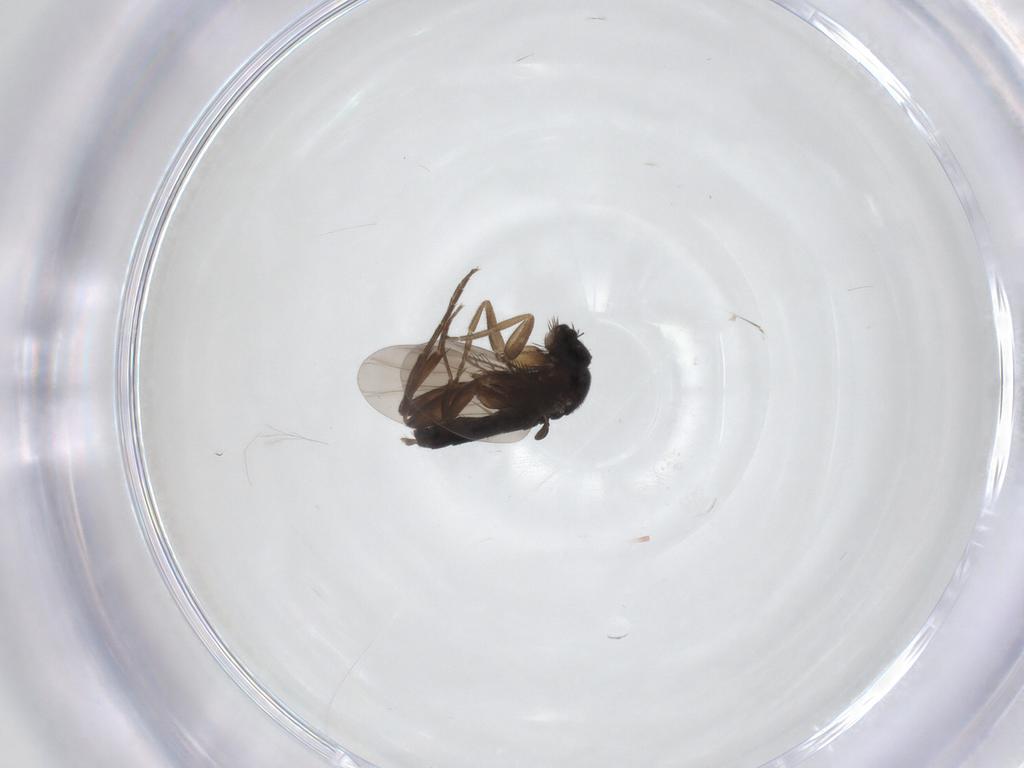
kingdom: Animalia
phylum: Arthropoda
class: Insecta
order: Diptera
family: Phoridae
